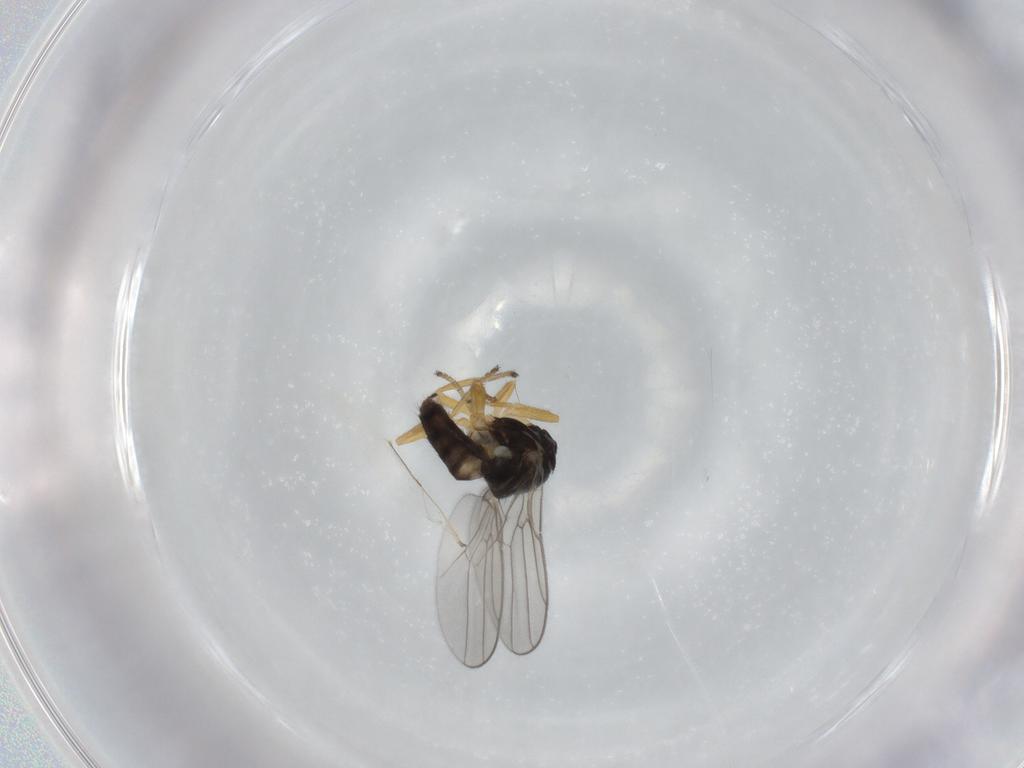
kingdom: Animalia
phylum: Arthropoda
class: Insecta
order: Diptera
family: Chloropidae
